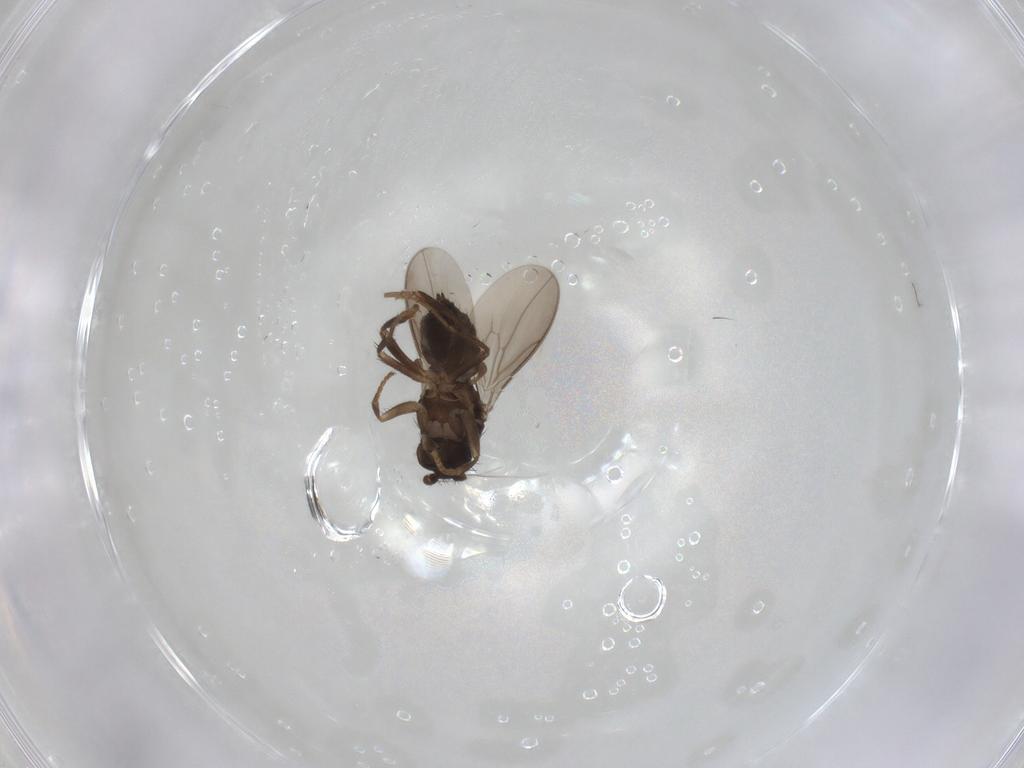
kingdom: Animalia
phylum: Arthropoda
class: Insecta
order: Diptera
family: Sphaeroceridae
